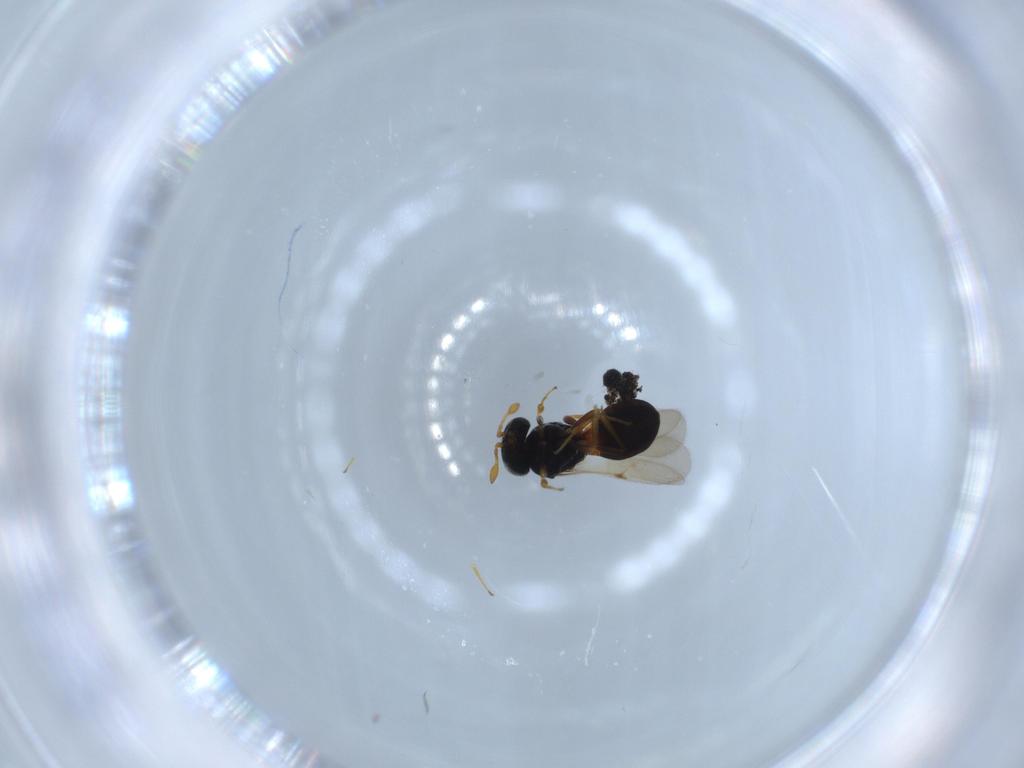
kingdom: Animalia
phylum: Arthropoda
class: Insecta
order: Hymenoptera
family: Scelionidae
